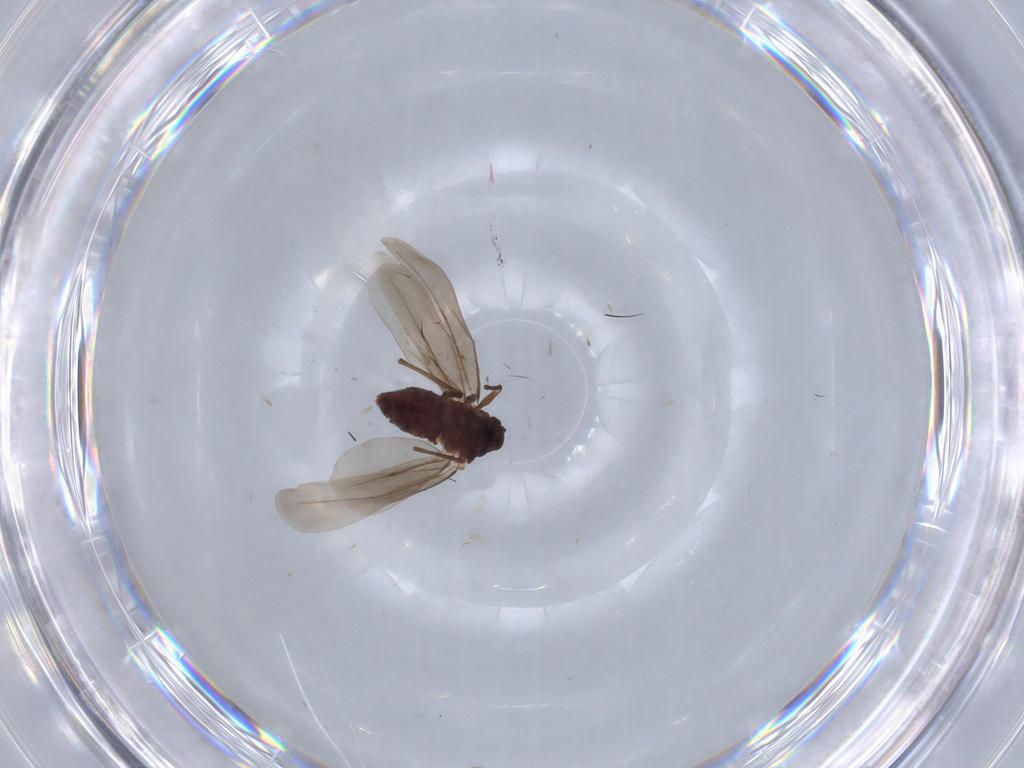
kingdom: Animalia
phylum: Arthropoda
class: Insecta
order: Hemiptera
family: Aleyrodidae
